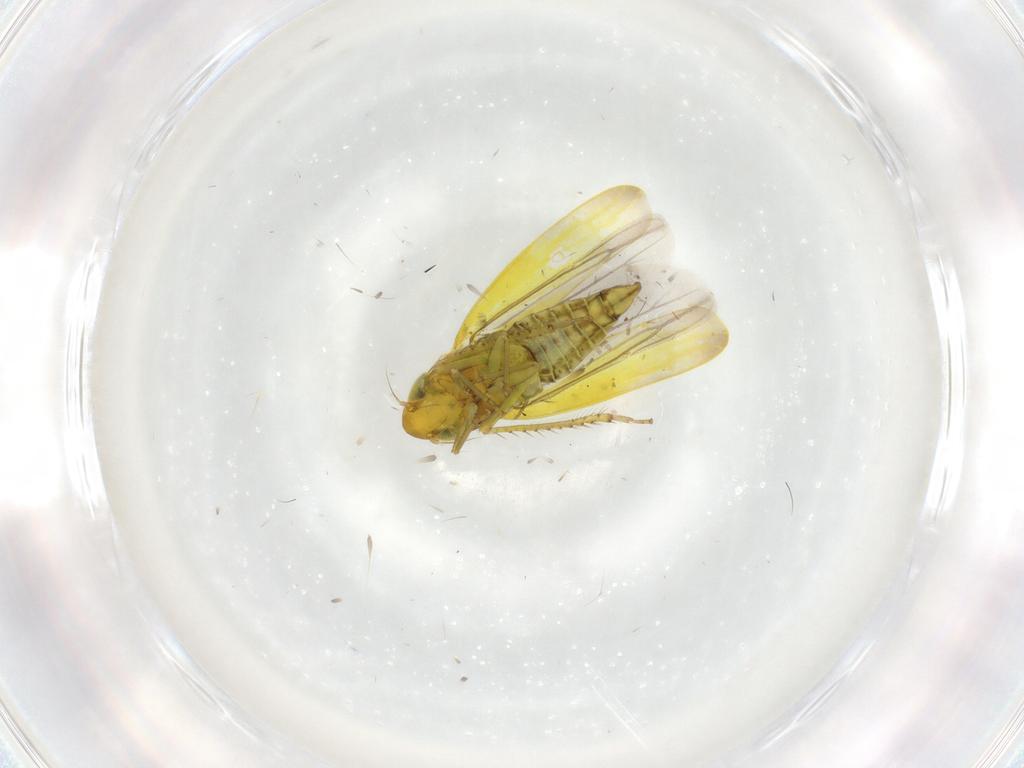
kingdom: Animalia
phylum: Arthropoda
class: Insecta
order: Hemiptera
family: Cicadellidae
